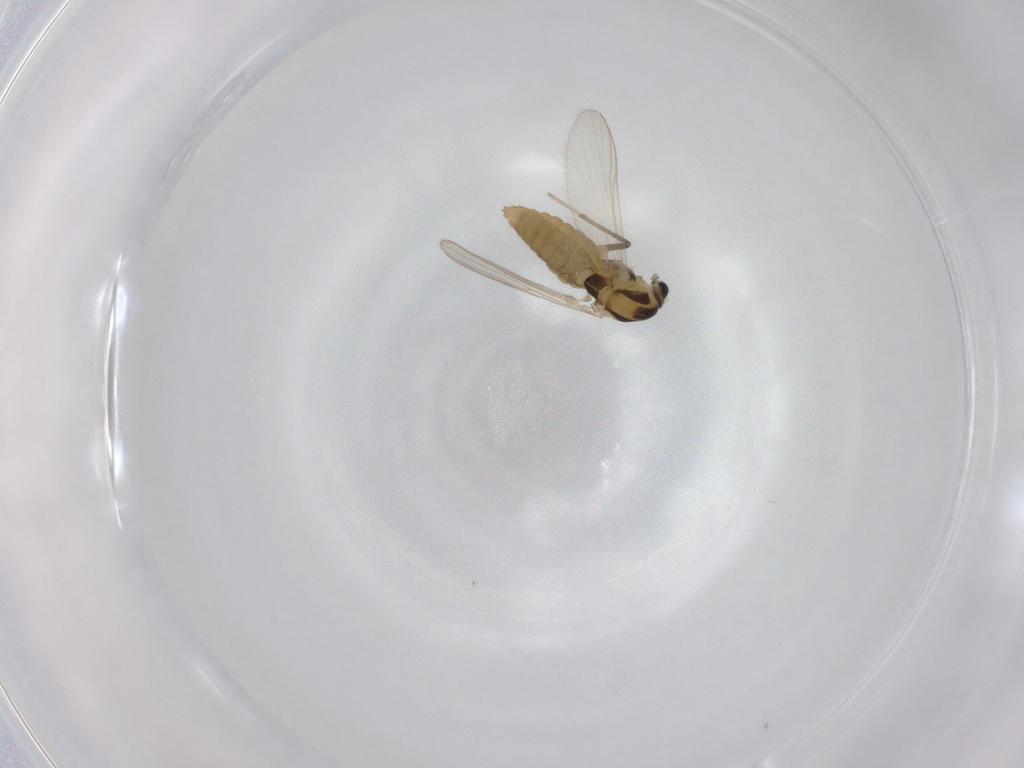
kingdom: Animalia
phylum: Arthropoda
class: Insecta
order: Diptera
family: Chironomidae
